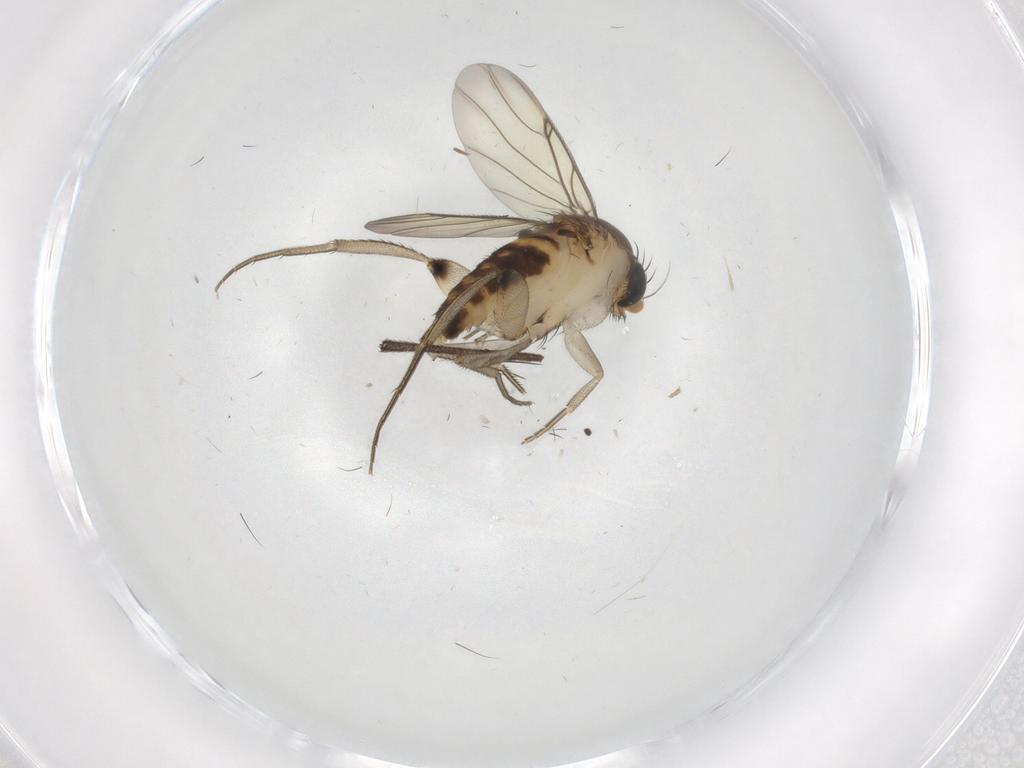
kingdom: Animalia
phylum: Arthropoda
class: Insecta
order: Diptera
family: Phoridae
